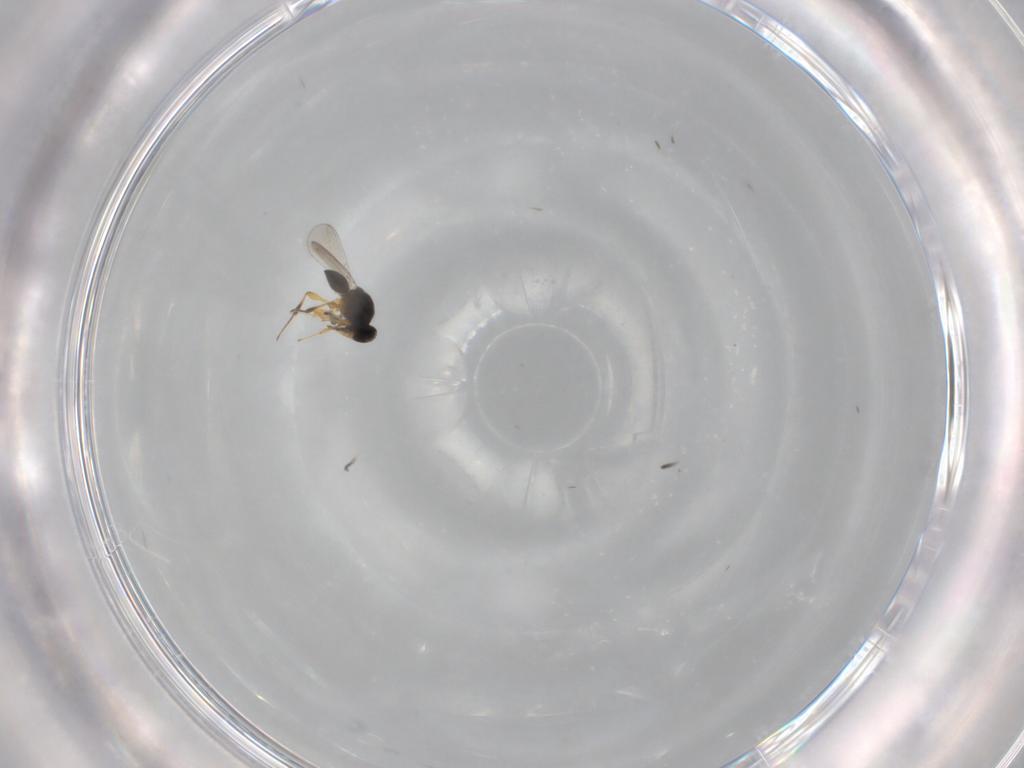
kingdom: Animalia
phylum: Arthropoda
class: Insecta
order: Hymenoptera
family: Platygastridae
